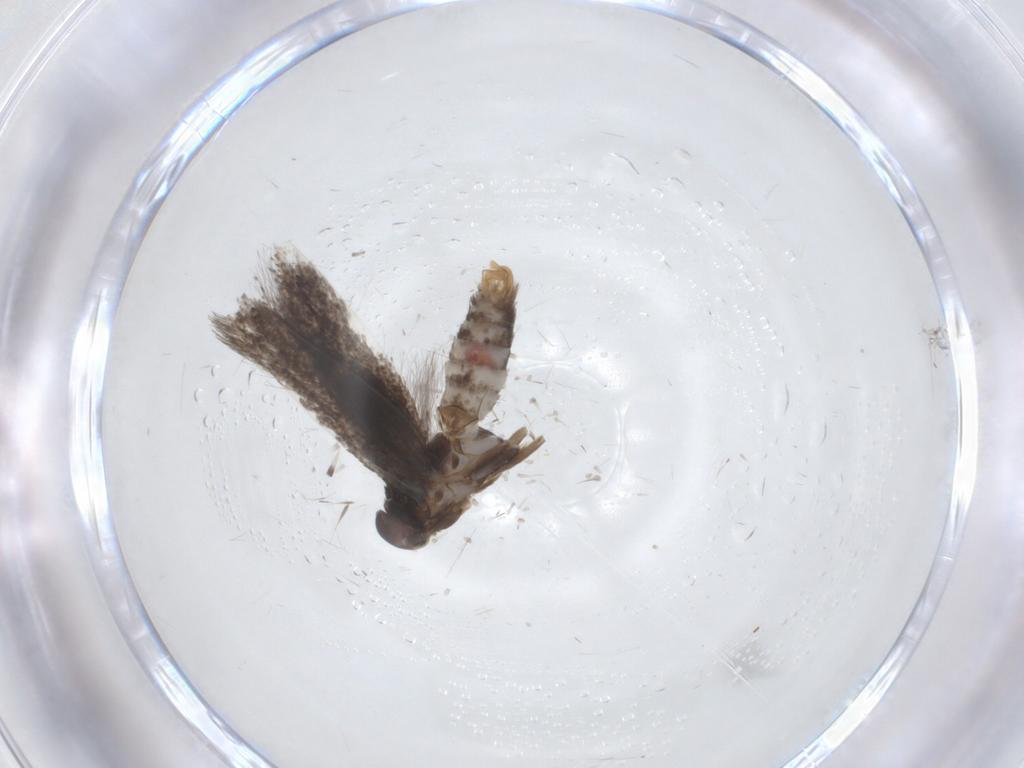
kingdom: Animalia
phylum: Arthropoda
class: Insecta
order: Lepidoptera
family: Elachistidae
